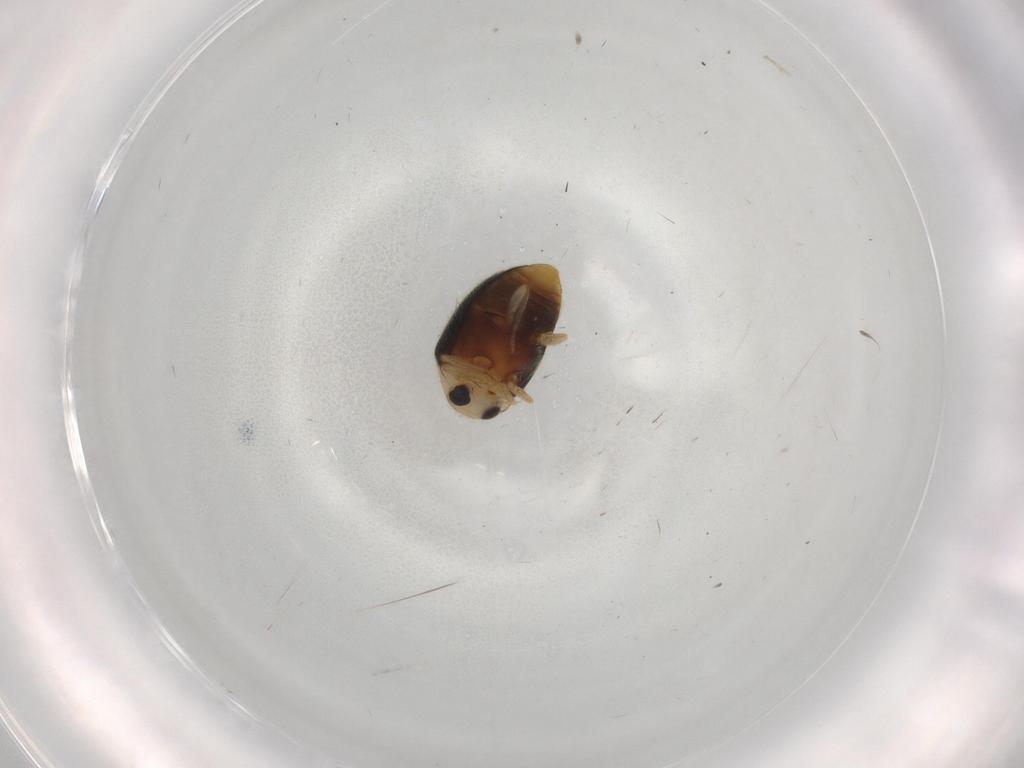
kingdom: Animalia
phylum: Arthropoda
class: Insecta
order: Coleoptera
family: Coccinellidae
